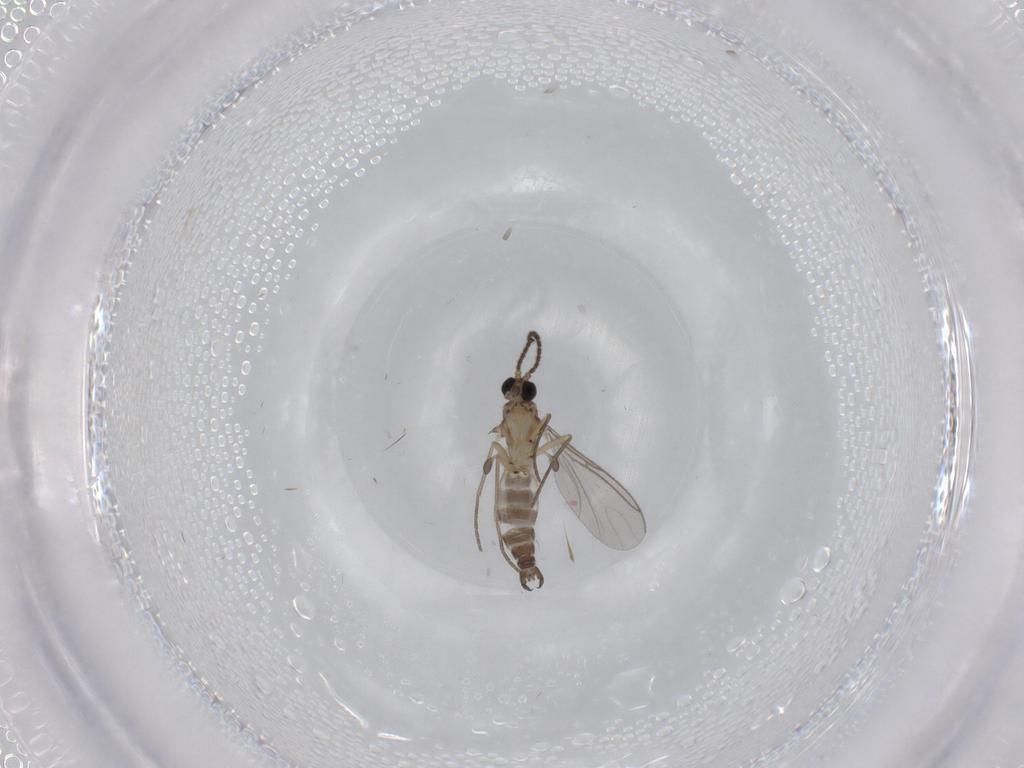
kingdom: Animalia
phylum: Arthropoda
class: Insecta
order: Diptera
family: Sciaridae
